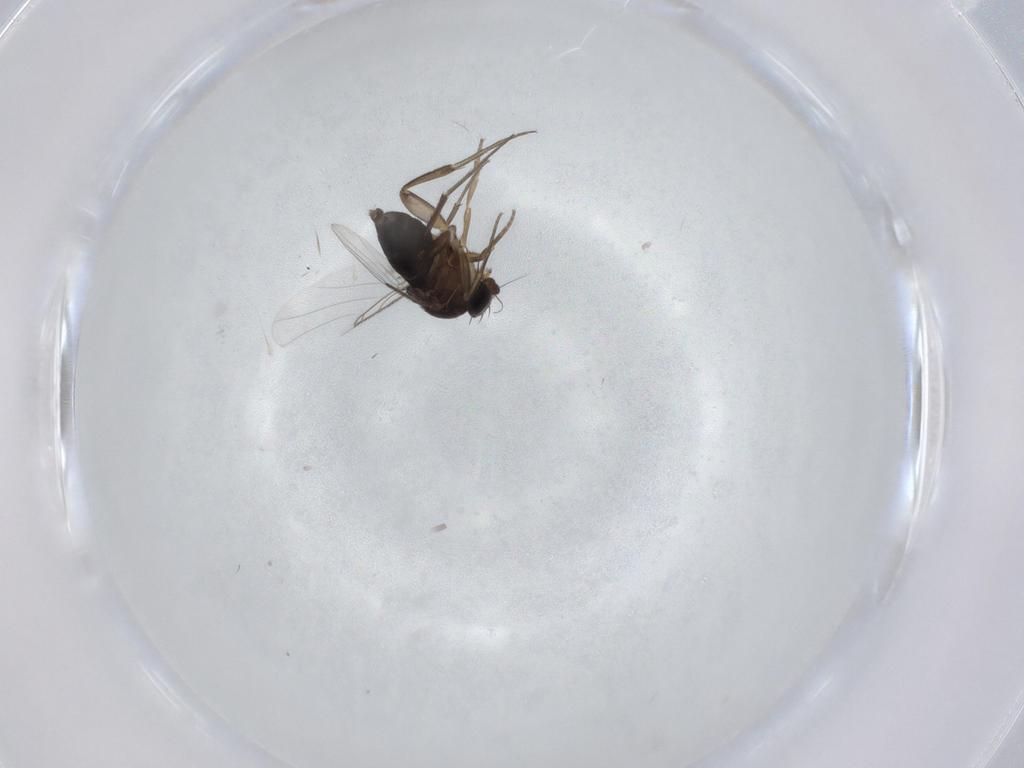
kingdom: Animalia
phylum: Arthropoda
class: Insecta
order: Diptera
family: Phoridae
